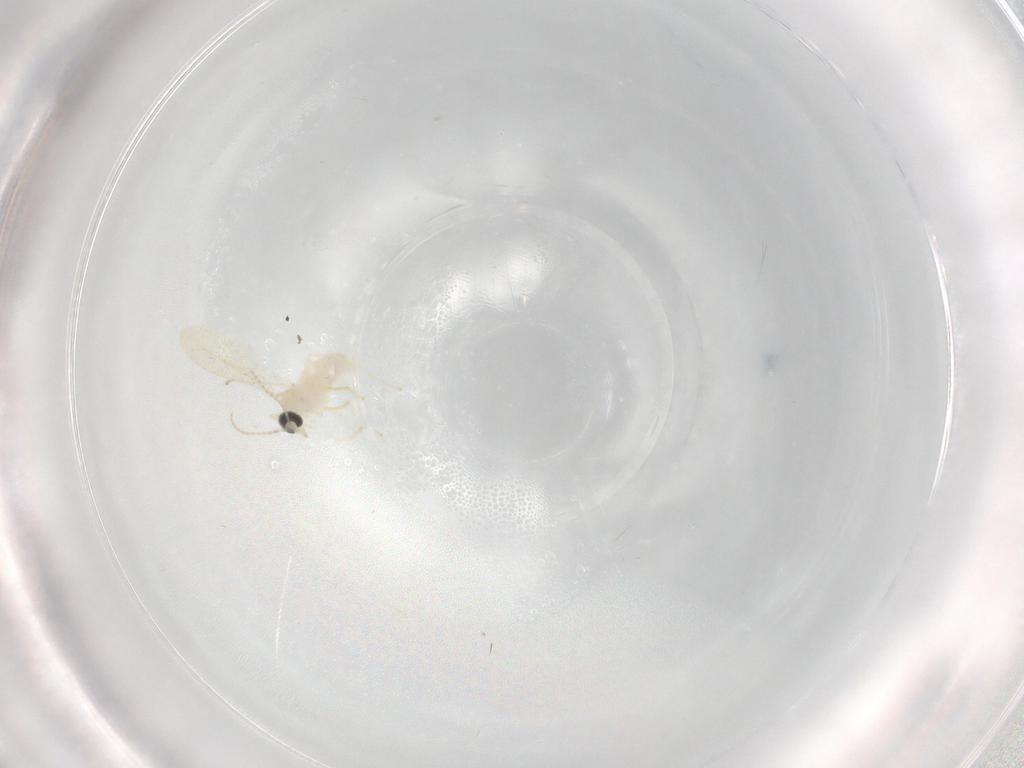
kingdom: Animalia
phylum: Arthropoda
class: Insecta
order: Diptera
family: Cecidomyiidae
